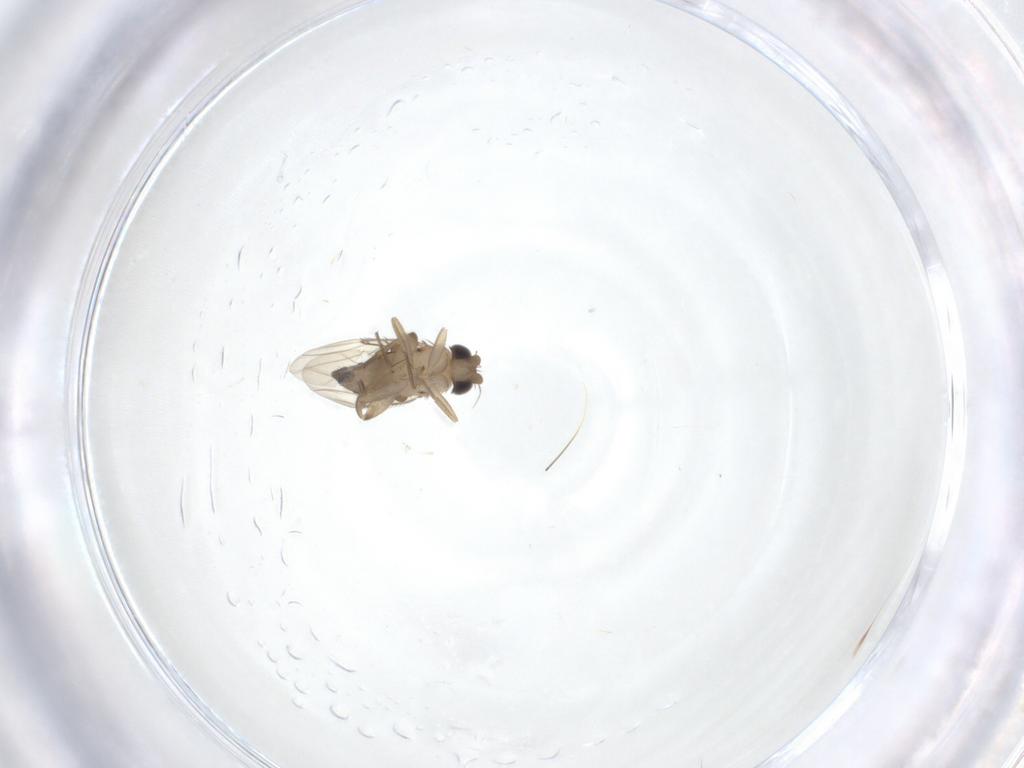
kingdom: Animalia
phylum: Arthropoda
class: Insecta
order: Diptera
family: Phoridae
